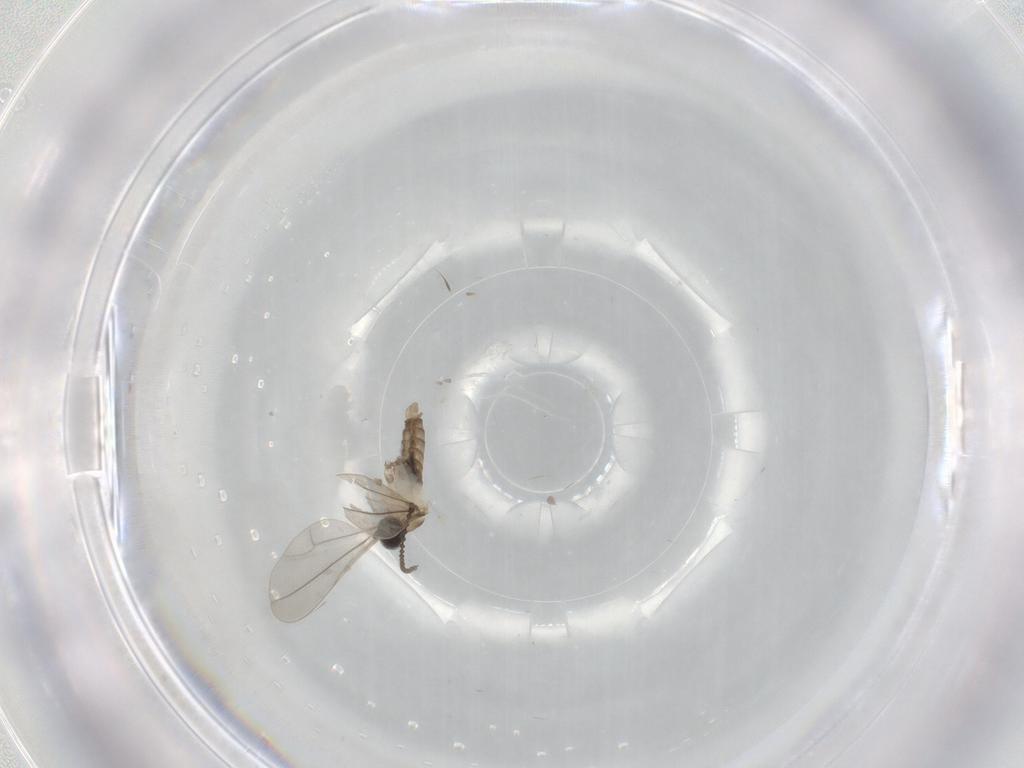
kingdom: Animalia
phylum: Arthropoda
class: Insecta
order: Diptera
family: Cecidomyiidae
